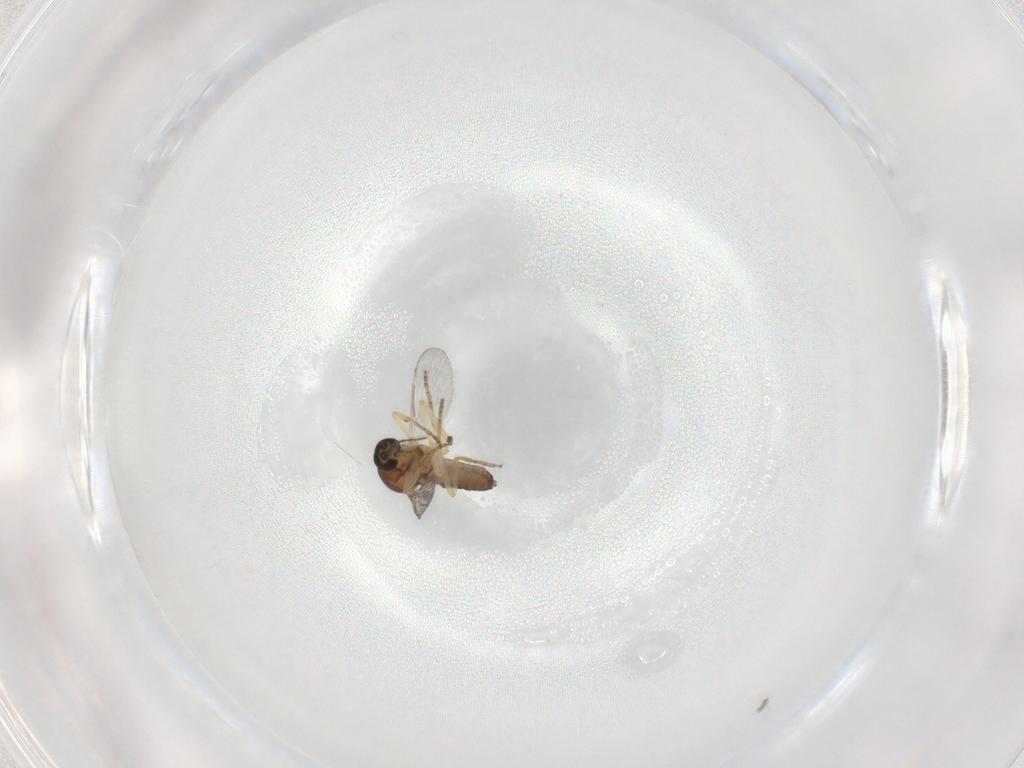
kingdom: Animalia
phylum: Arthropoda
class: Insecta
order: Diptera
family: Ceratopogonidae
